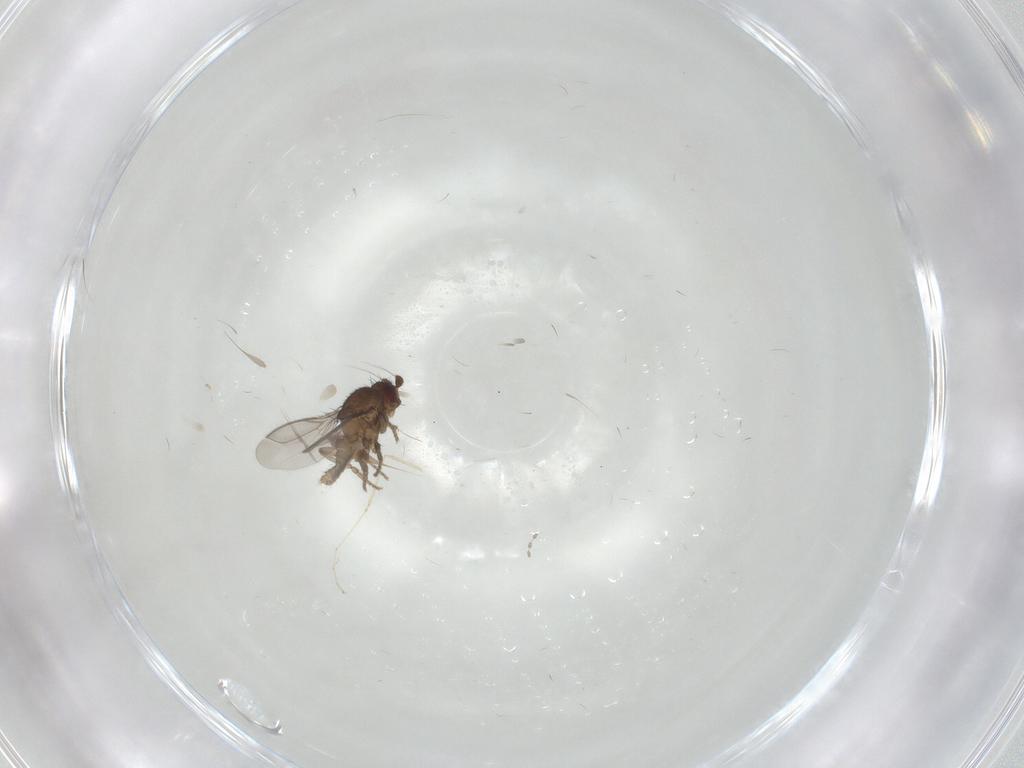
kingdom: Animalia
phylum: Arthropoda
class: Insecta
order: Diptera
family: Sphaeroceridae
